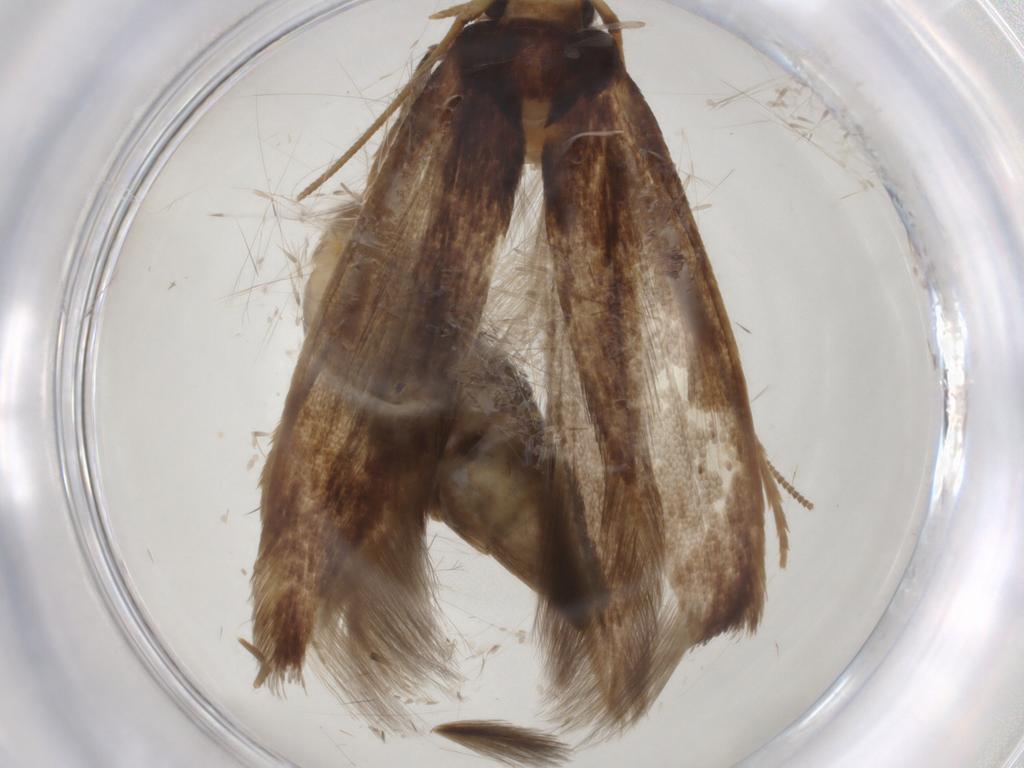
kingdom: Animalia
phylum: Arthropoda
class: Insecta
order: Lepidoptera
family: Tineidae
